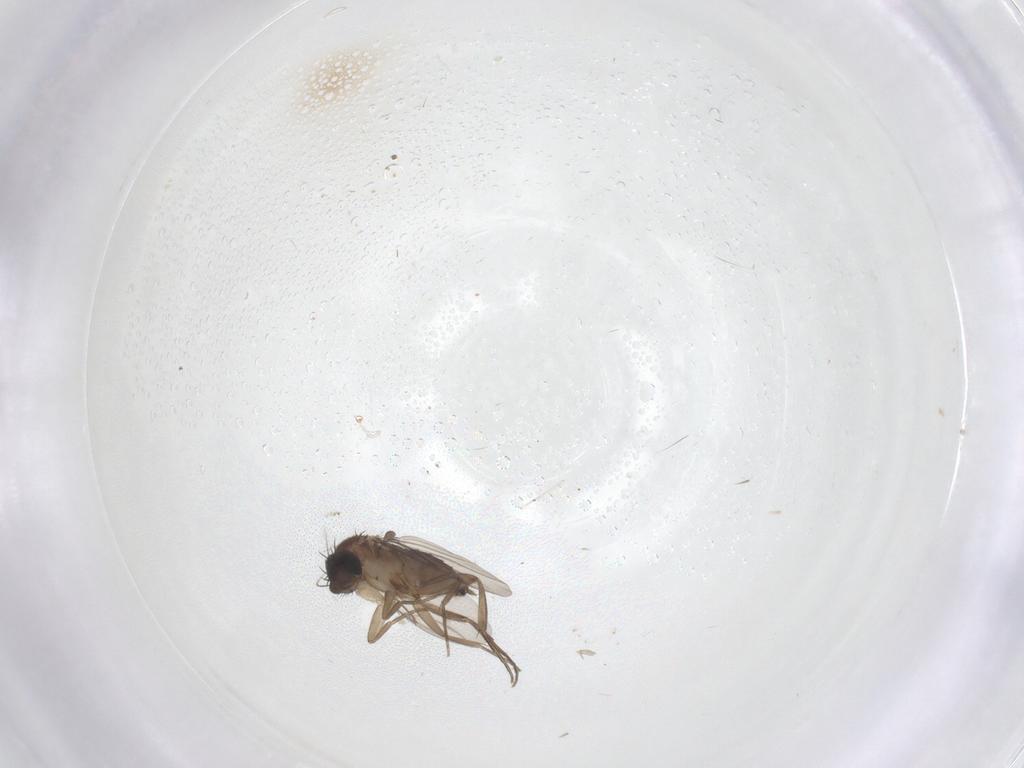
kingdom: Animalia
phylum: Arthropoda
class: Insecta
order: Diptera
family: Phoridae
